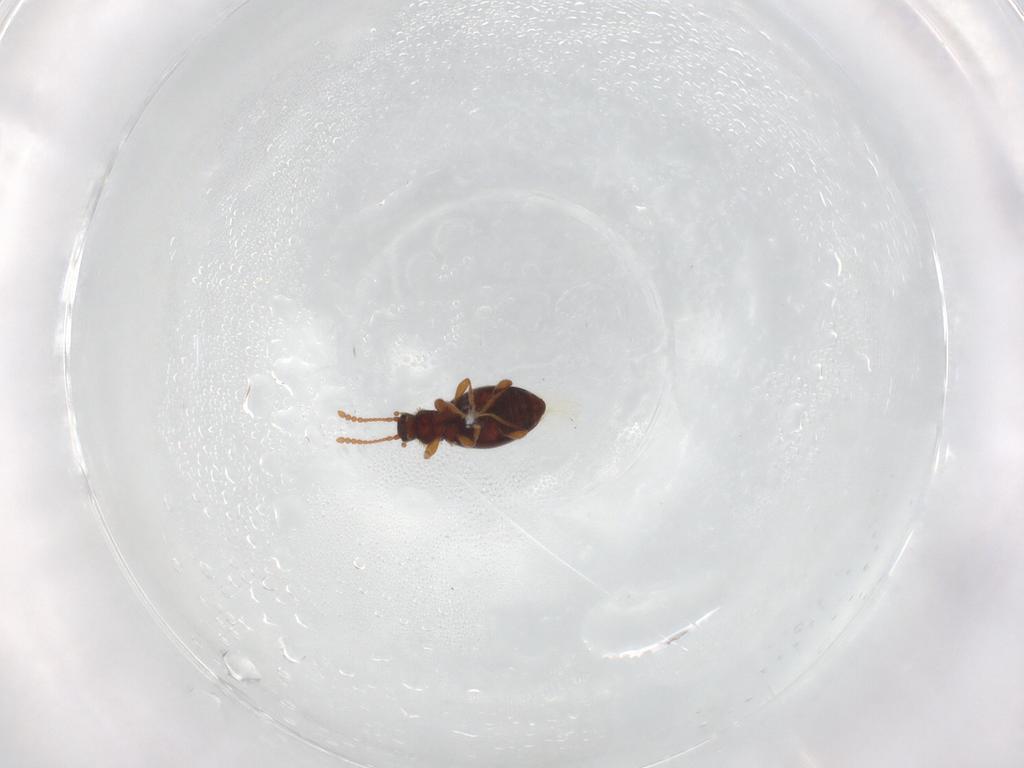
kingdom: Animalia
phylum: Arthropoda
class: Insecta
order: Coleoptera
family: Staphylinidae
